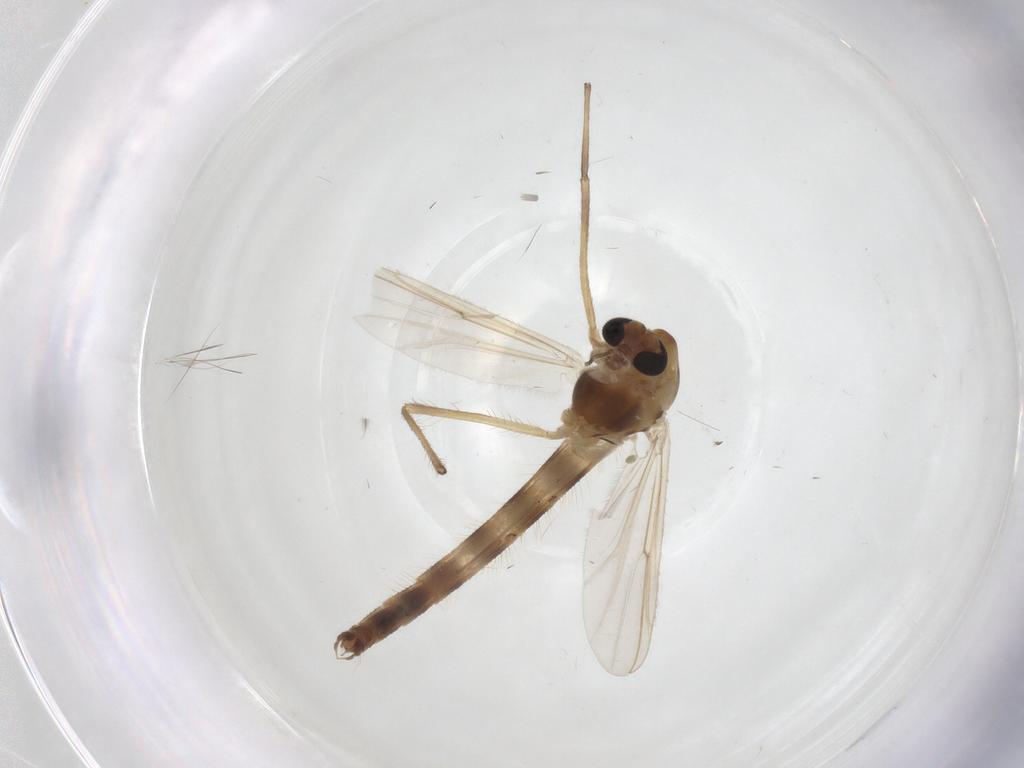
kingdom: Animalia
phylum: Arthropoda
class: Insecta
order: Diptera
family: Chironomidae
